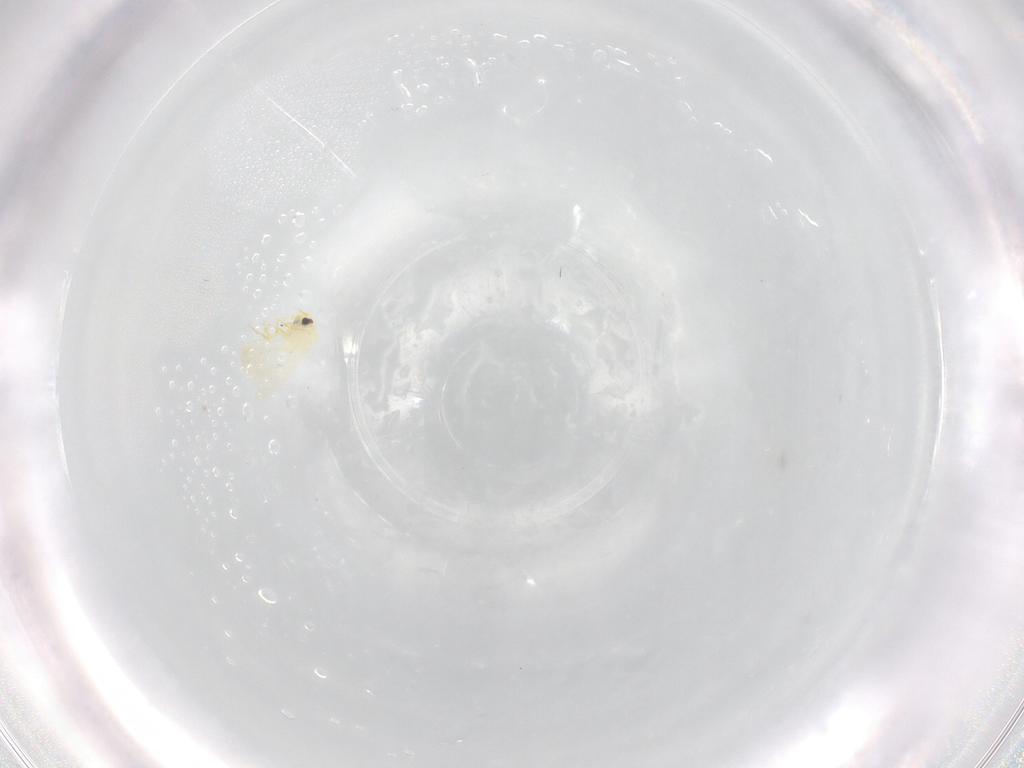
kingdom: Animalia
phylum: Arthropoda
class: Insecta
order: Hemiptera
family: Aleyrodidae
